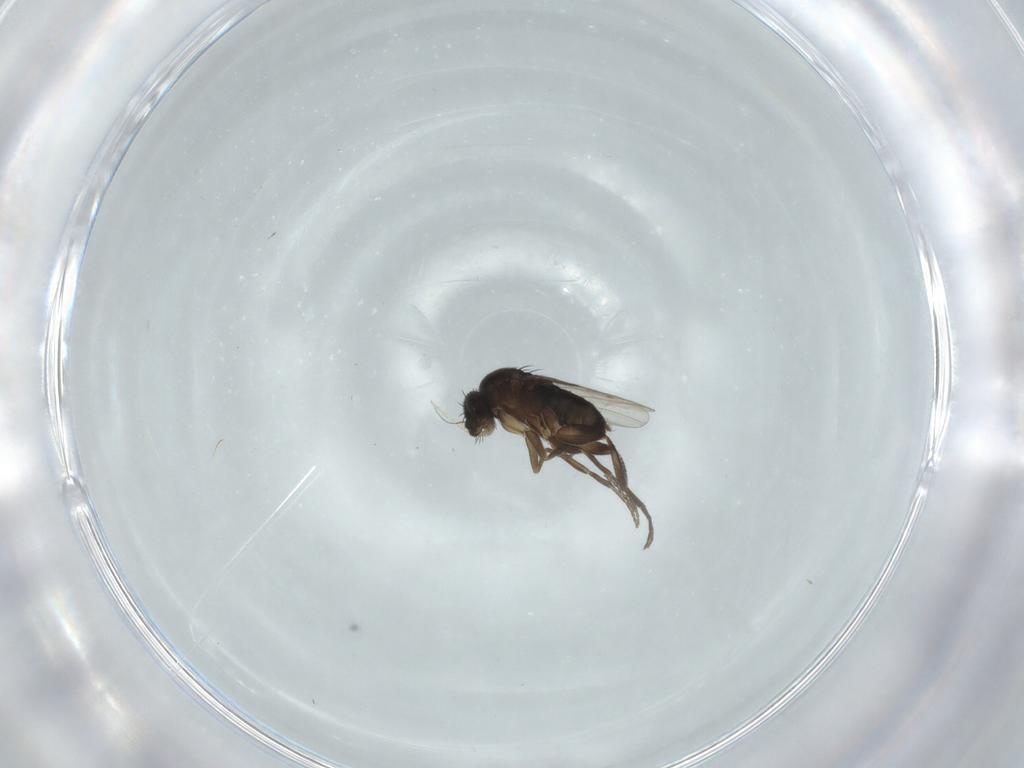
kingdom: Animalia
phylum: Arthropoda
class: Insecta
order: Diptera
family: Phoridae
